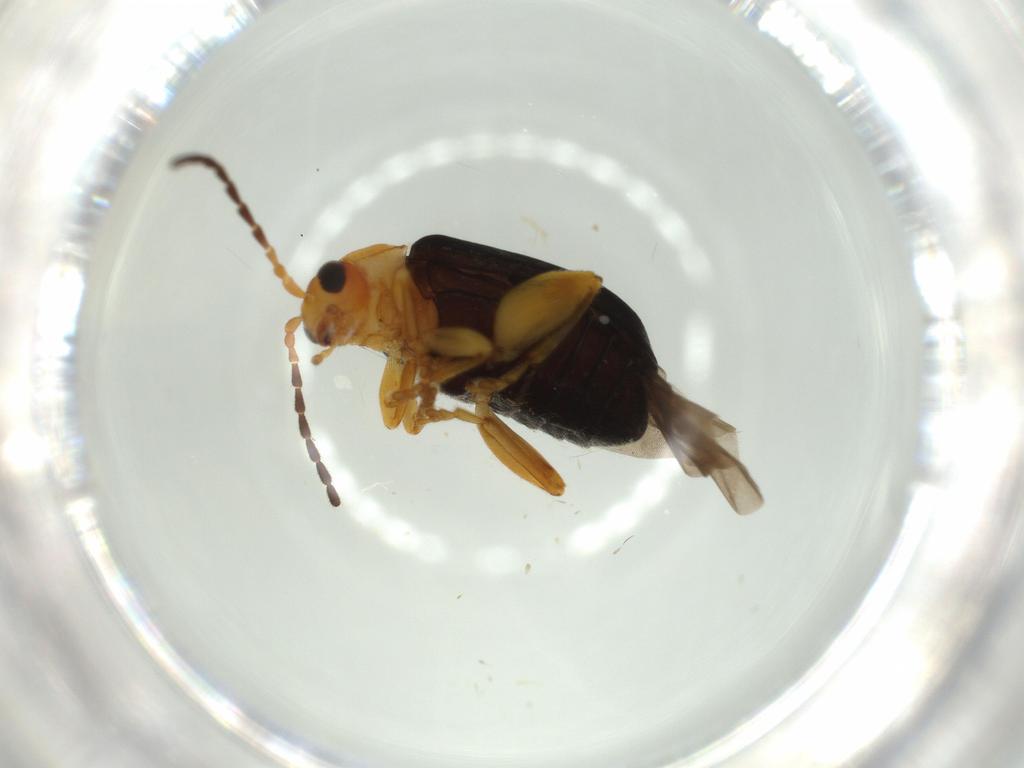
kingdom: Animalia
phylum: Arthropoda
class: Insecta
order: Coleoptera
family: Chrysomelidae
